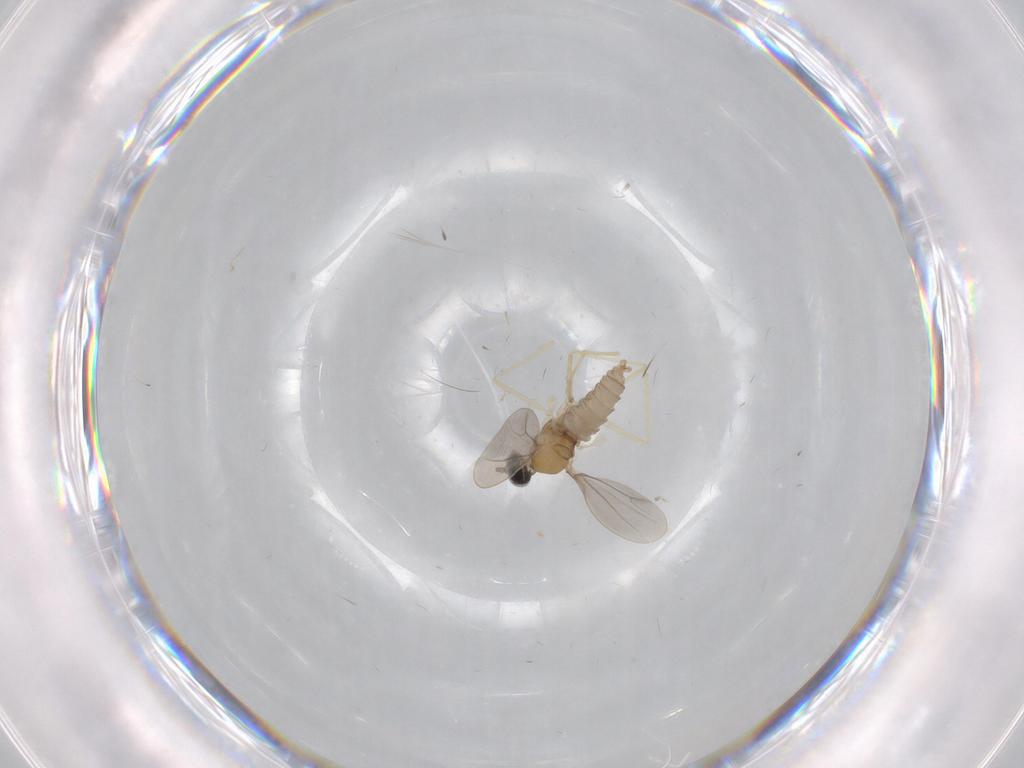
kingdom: Animalia
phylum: Arthropoda
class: Insecta
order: Diptera
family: Cecidomyiidae
